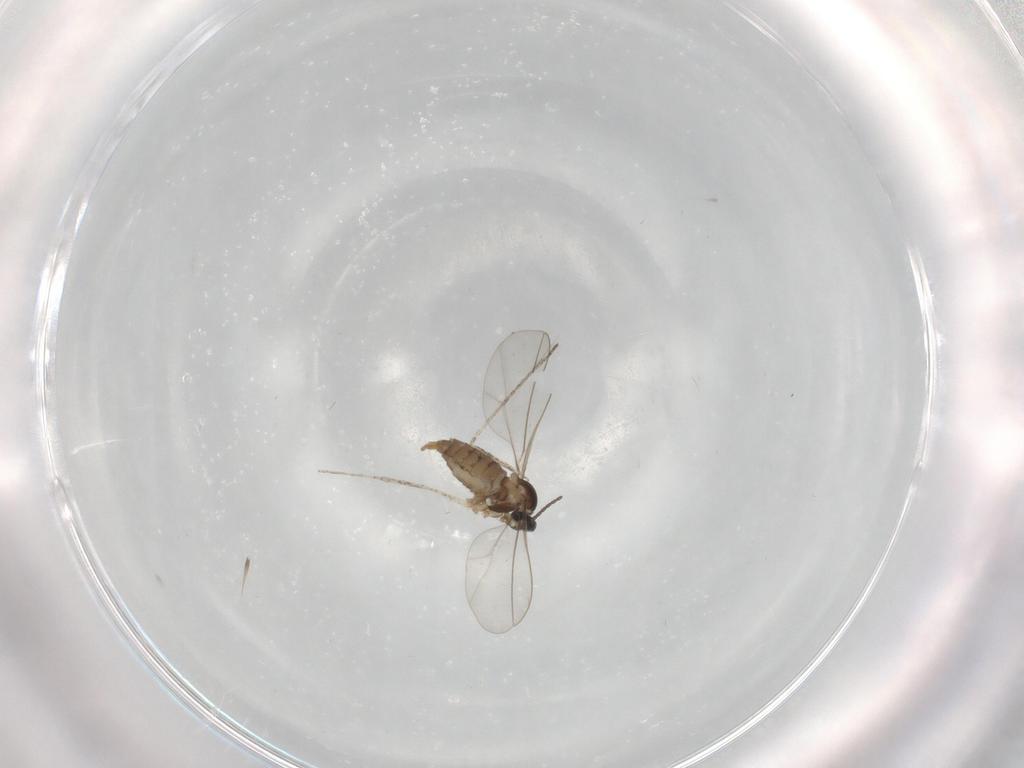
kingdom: Animalia
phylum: Arthropoda
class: Insecta
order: Diptera
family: Cecidomyiidae
